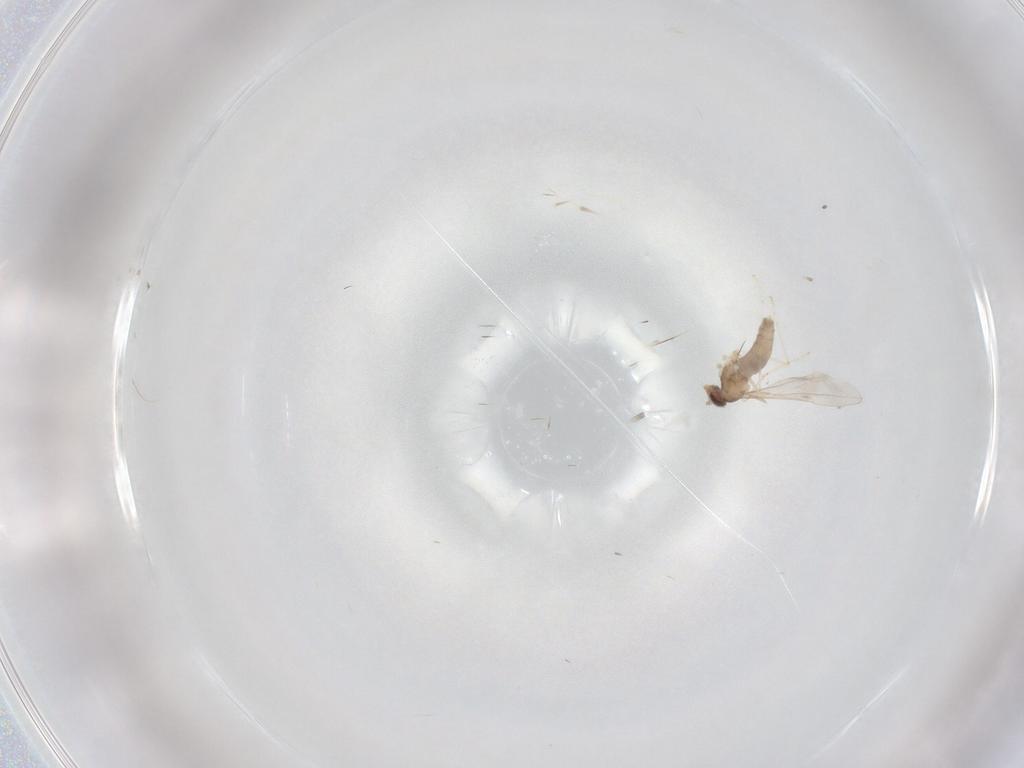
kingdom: Animalia
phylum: Arthropoda
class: Insecta
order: Diptera
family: Cecidomyiidae
